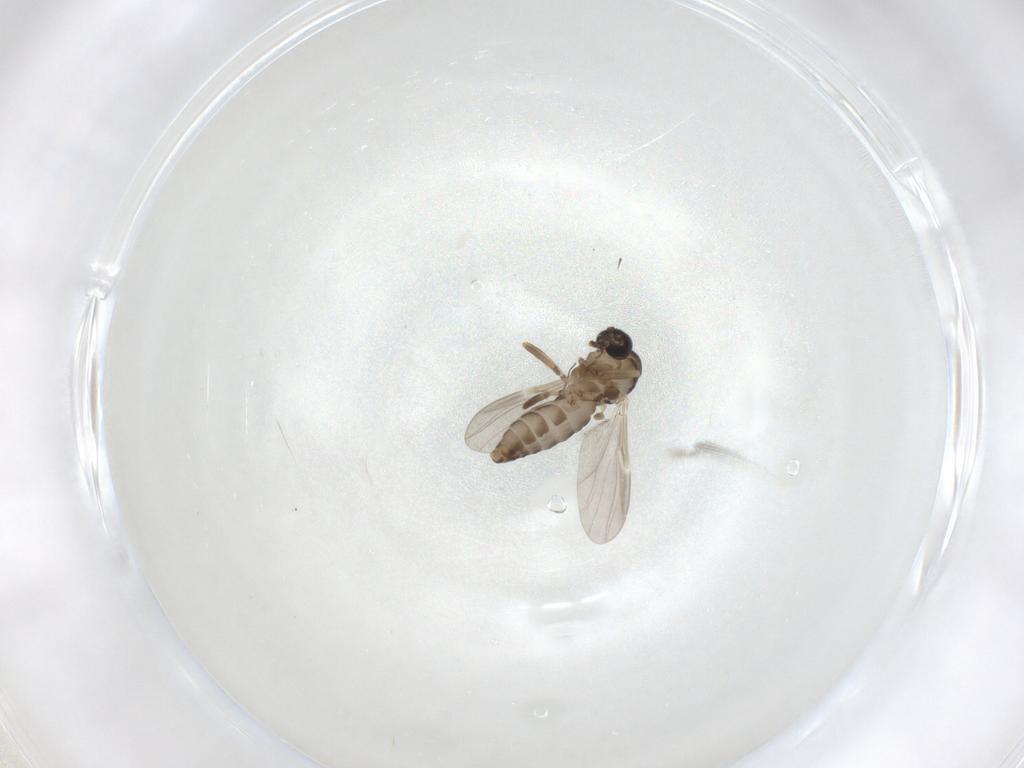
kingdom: Animalia
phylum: Arthropoda
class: Insecta
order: Diptera
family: Ceratopogonidae
